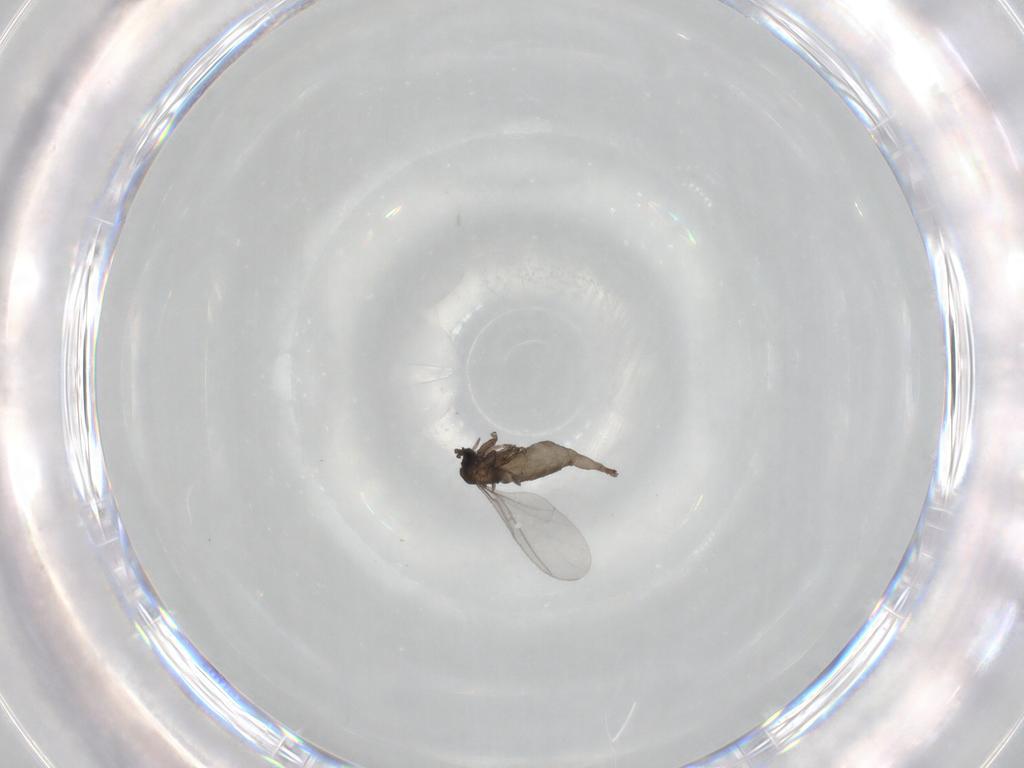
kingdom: Animalia
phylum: Arthropoda
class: Insecta
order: Diptera
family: Sciaridae
